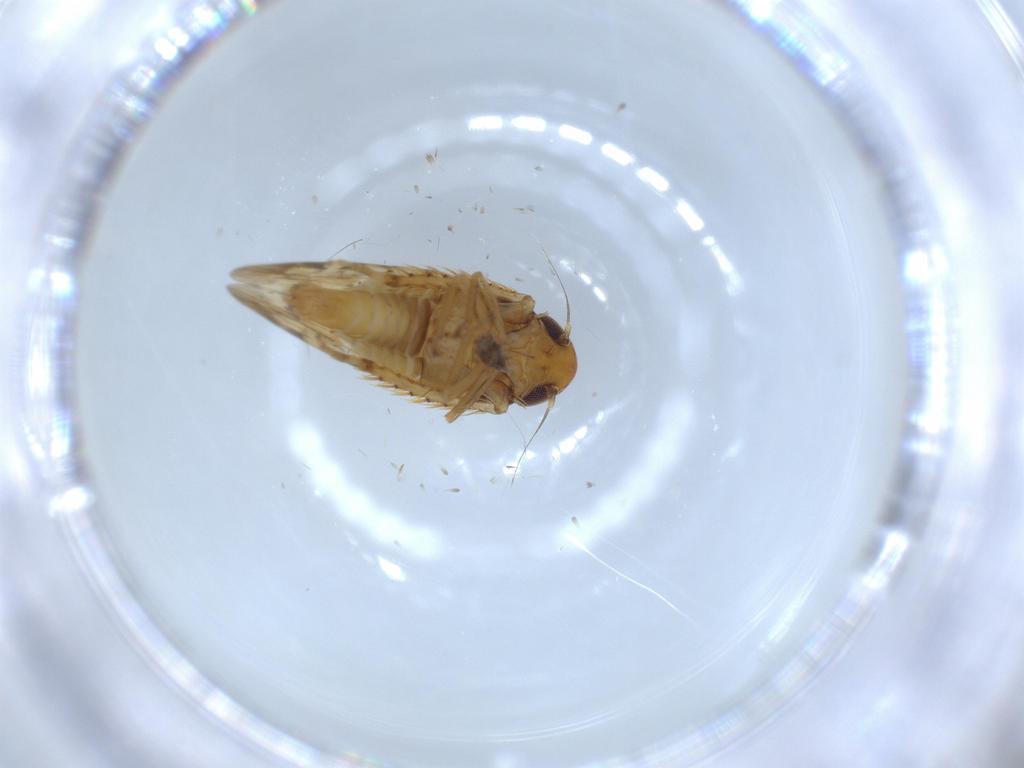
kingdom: Animalia
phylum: Arthropoda
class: Insecta
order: Hemiptera
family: Cicadellidae
